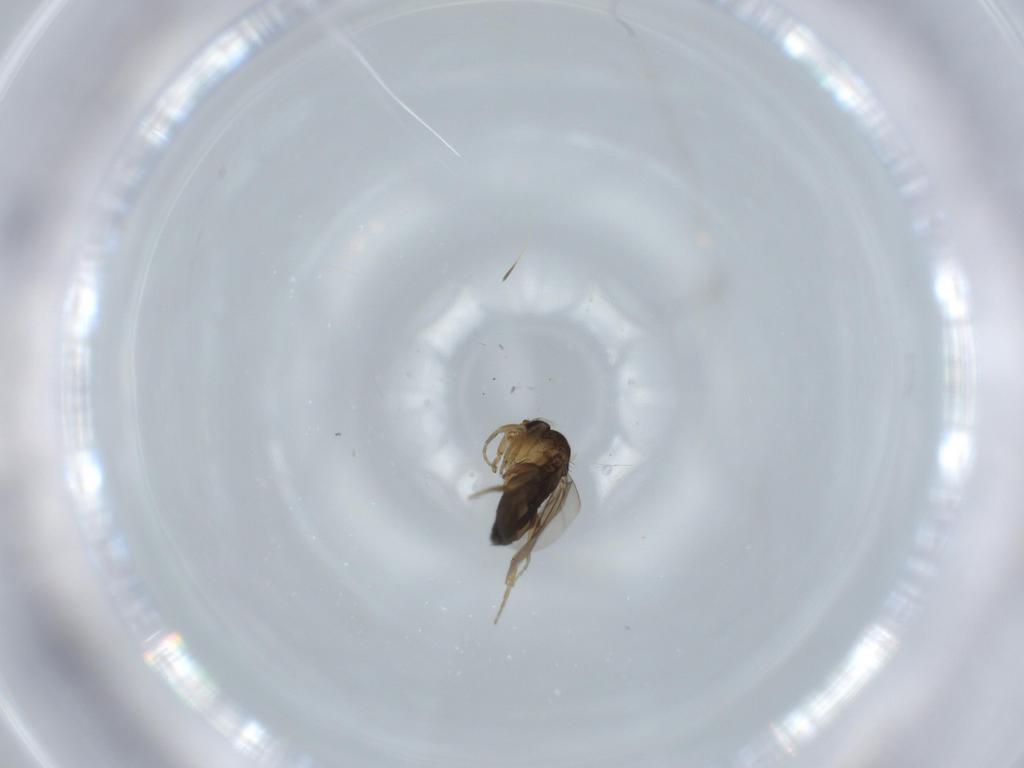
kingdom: Animalia
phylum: Arthropoda
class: Insecta
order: Diptera
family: Phoridae
